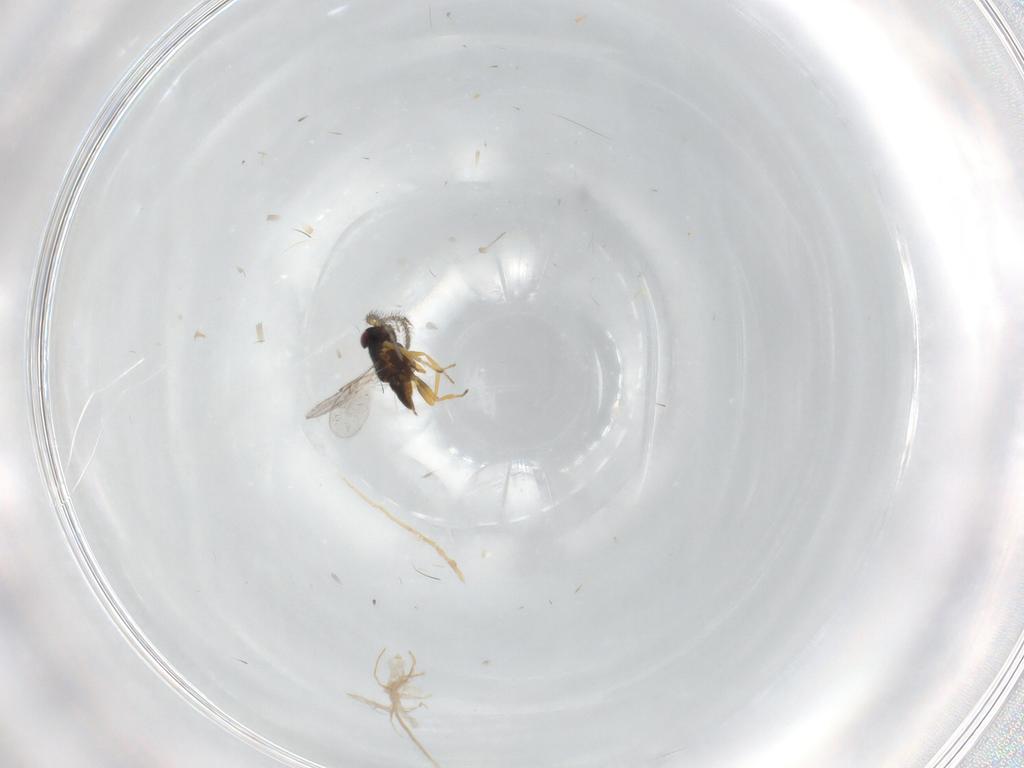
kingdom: Animalia
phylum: Arthropoda
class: Insecta
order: Hymenoptera
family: Encyrtidae
